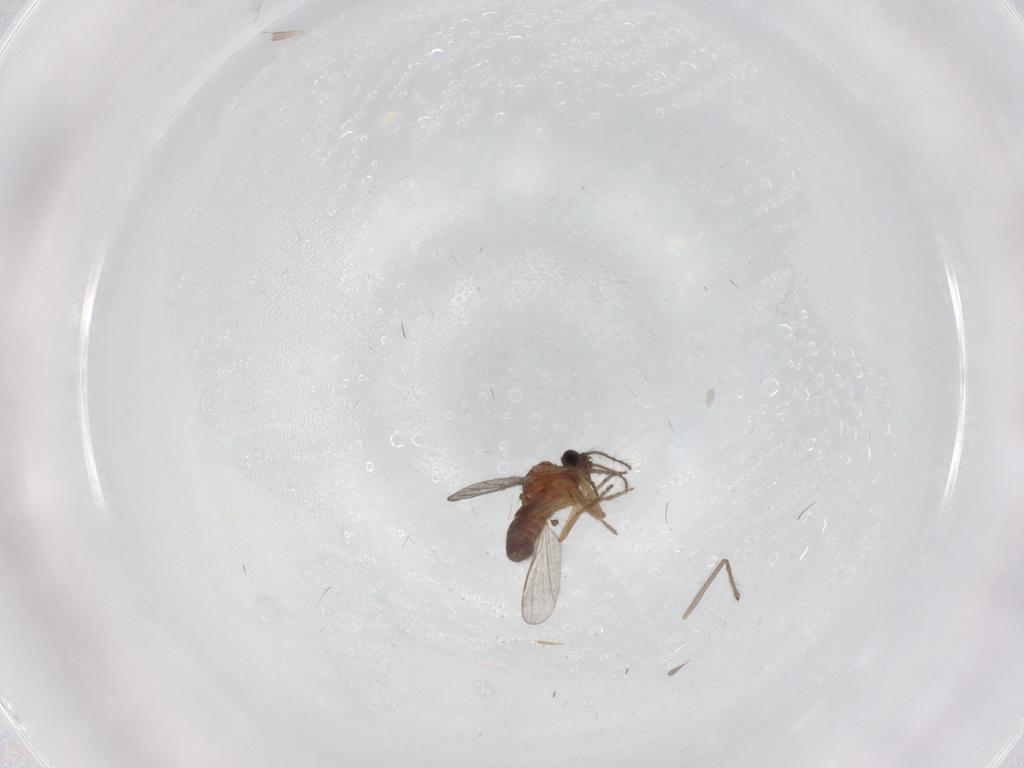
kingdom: Animalia
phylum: Arthropoda
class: Insecta
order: Diptera
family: Ceratopogonidae
